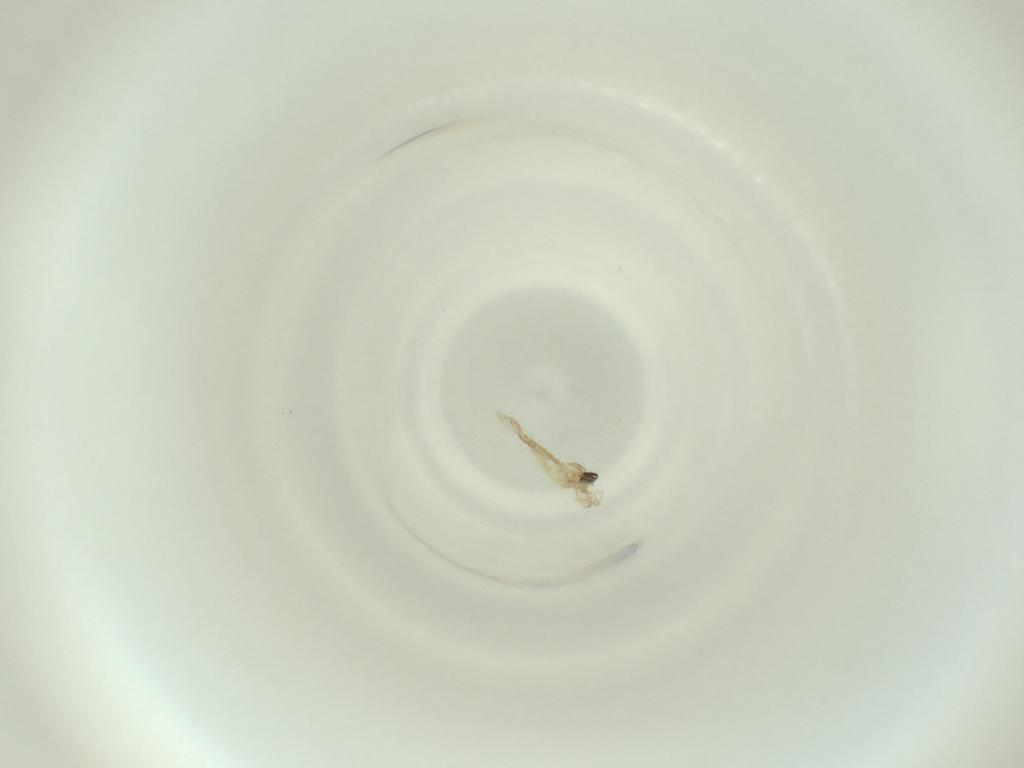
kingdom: Animalia
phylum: Arthropoda
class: Insecta
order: Diptera
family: Cecidomyiidae
